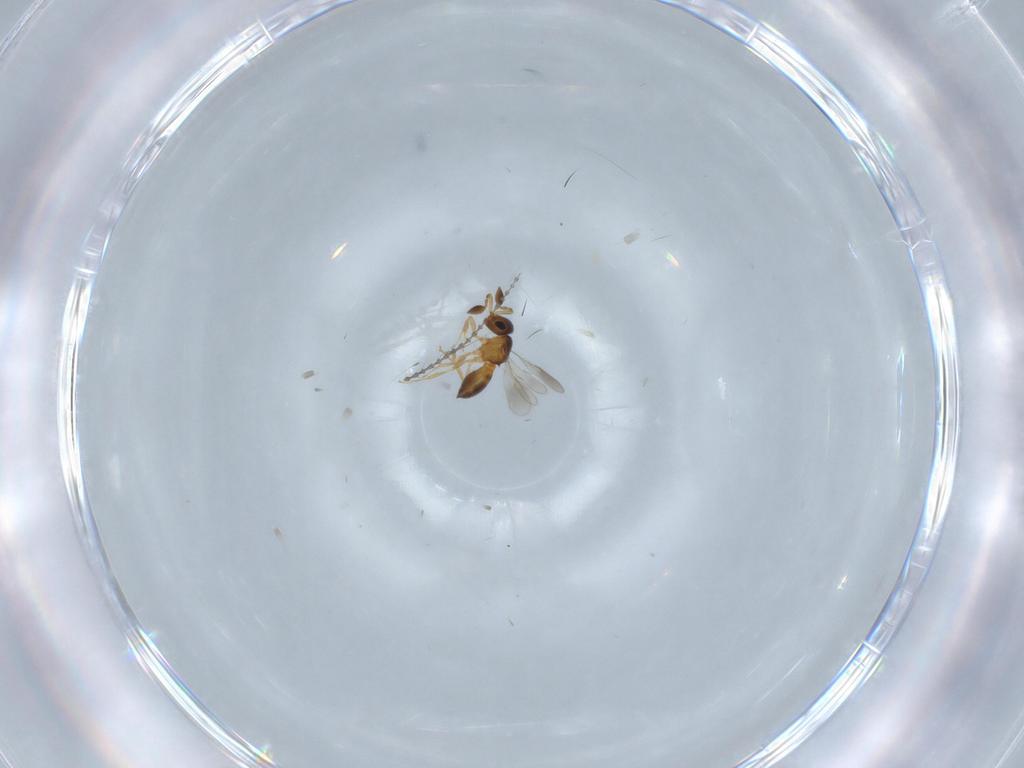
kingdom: Animalia
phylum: Arthropoda
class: Insecta
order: Hymenoptera
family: Scelionidae
